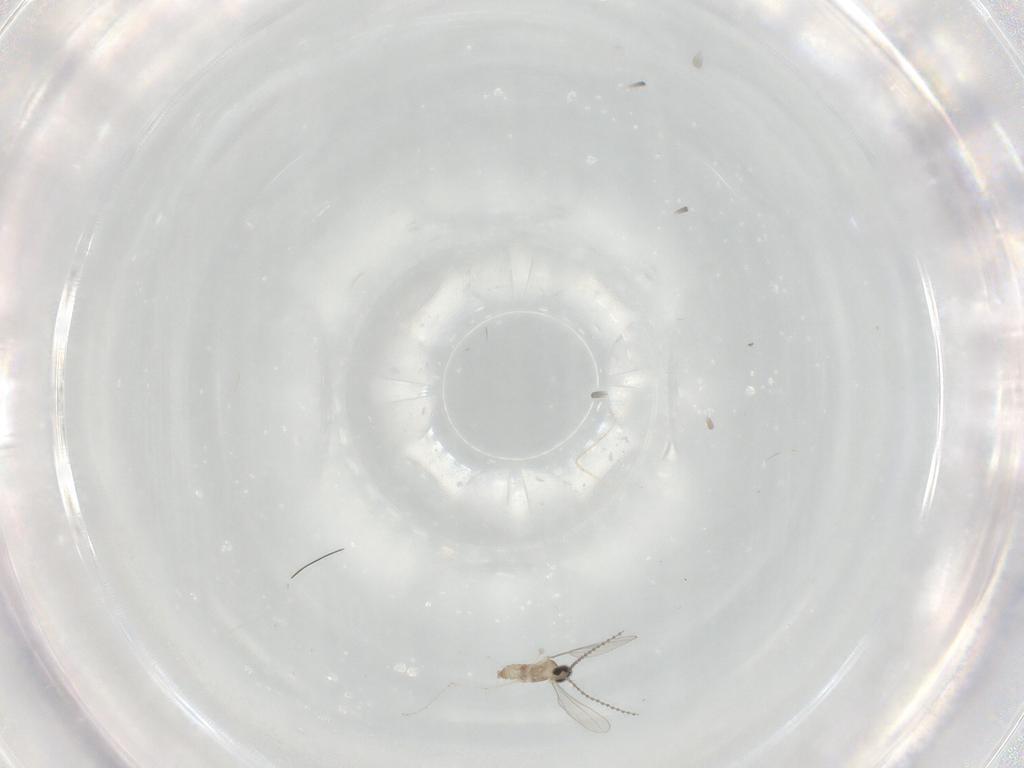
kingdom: Animalia
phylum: Arthropoda
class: Insecta
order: Diptera
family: Cecidomyiidae
